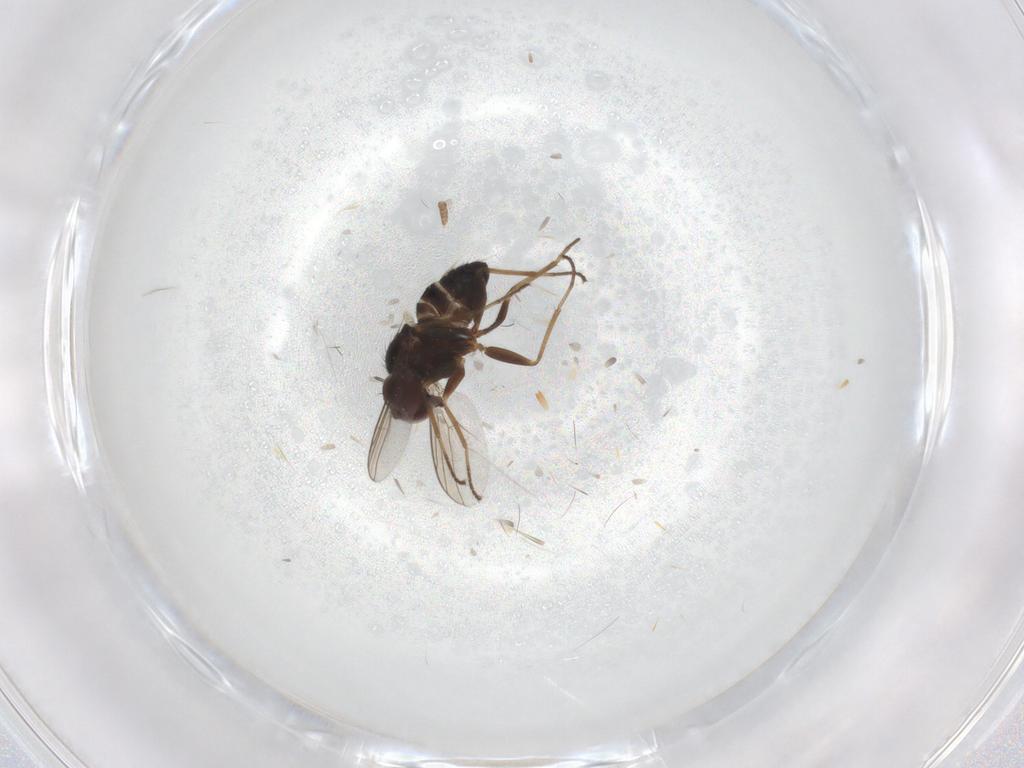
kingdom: Animalia
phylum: Arthropoda
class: Insecta
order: Diptera
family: Dolichopodidae
